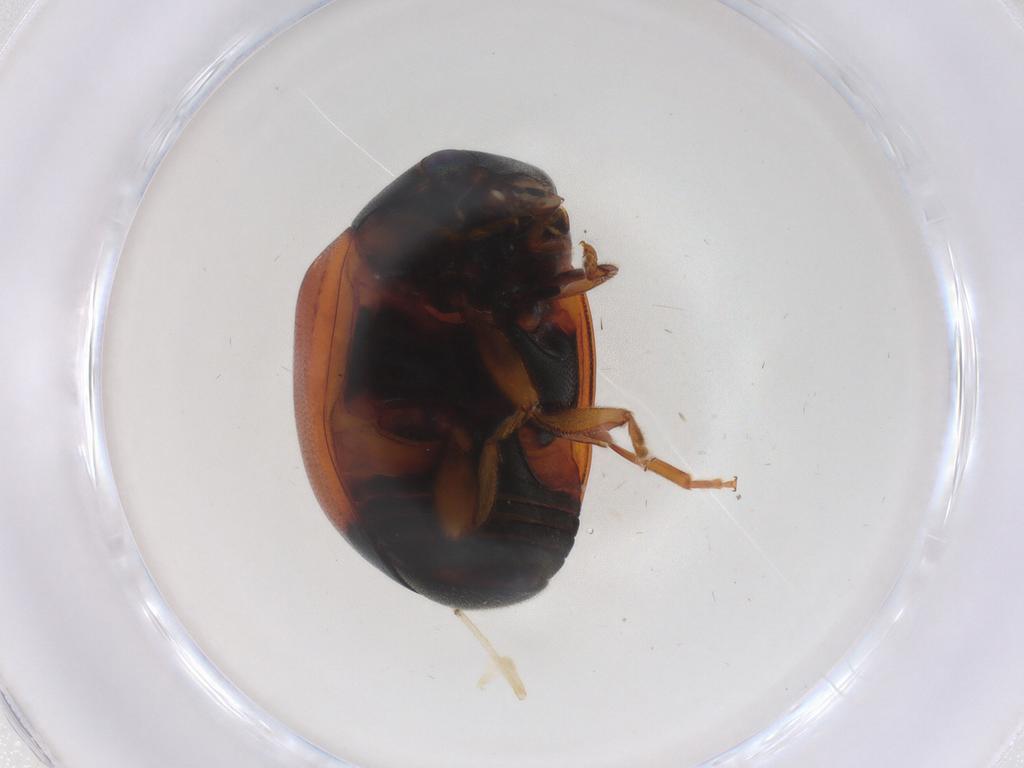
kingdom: Animalia
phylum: Arthropoda
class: Insecta
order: Coleoptera
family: Coccinellidae
